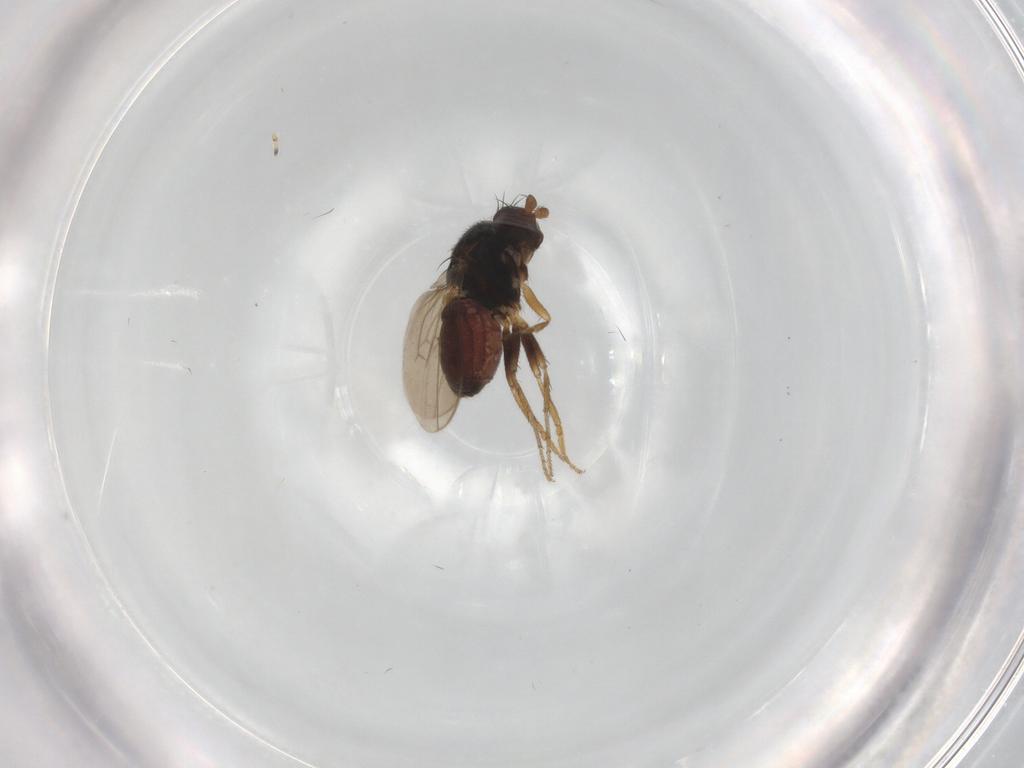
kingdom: Animalia
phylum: Arthropoda
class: Insecta
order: Diptera
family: Sphaeroceridae
